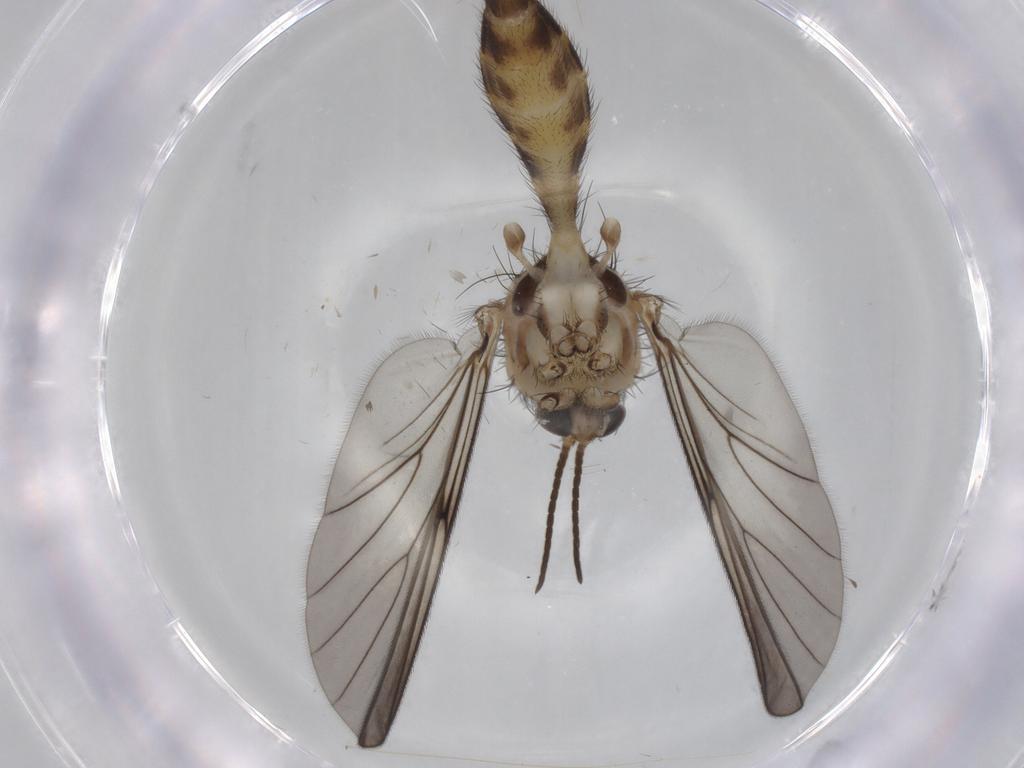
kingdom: Animalia
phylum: Arthropoda
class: Insecta
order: Diptera
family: Mycetophilidae
